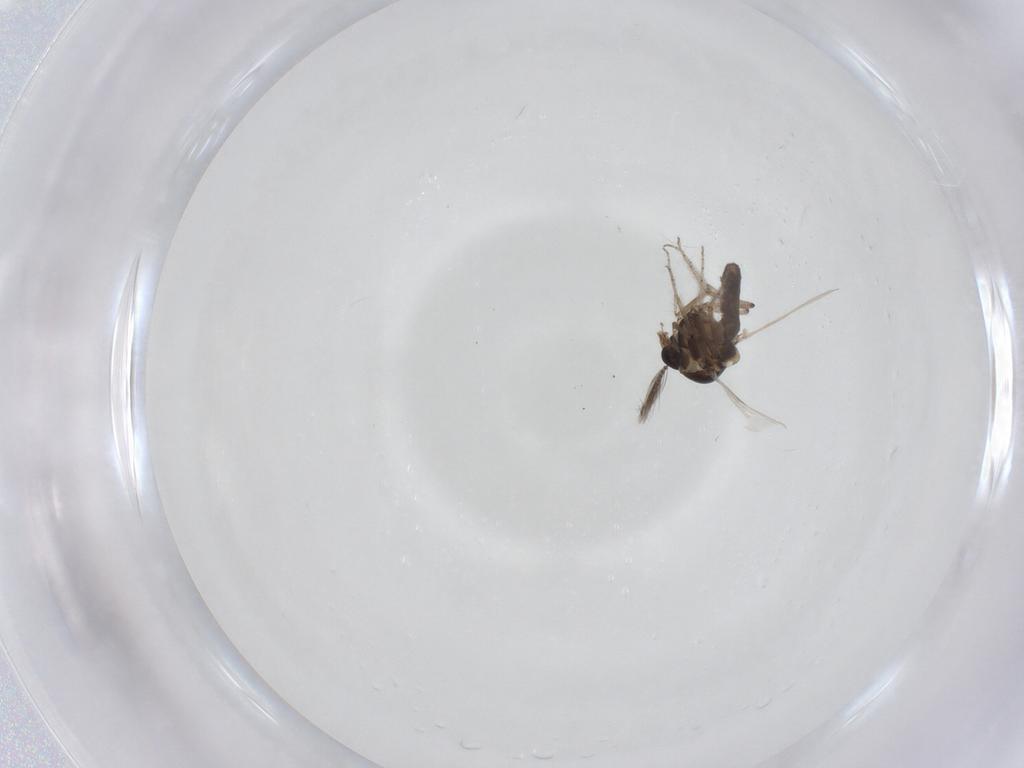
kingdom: Animalia
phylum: Arthropoda
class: Insecta
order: Diptera
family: Ceratopogonidae
